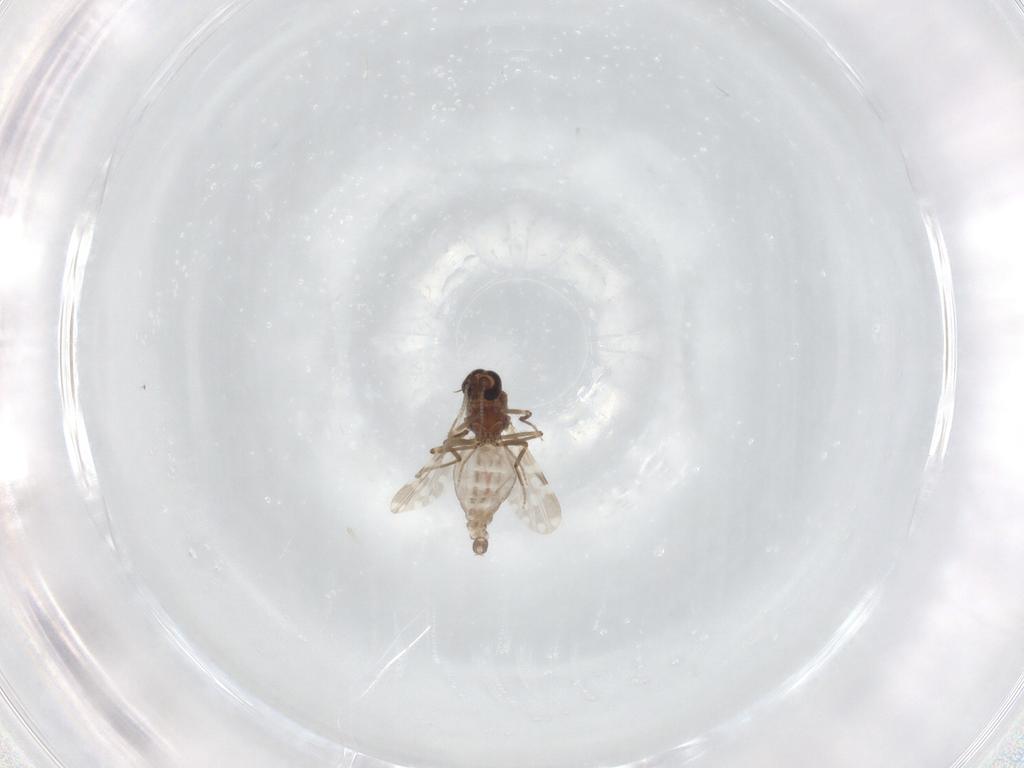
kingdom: Animalia
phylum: Arthropoda
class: Insecta
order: Diptera
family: Ceratopogonidae
